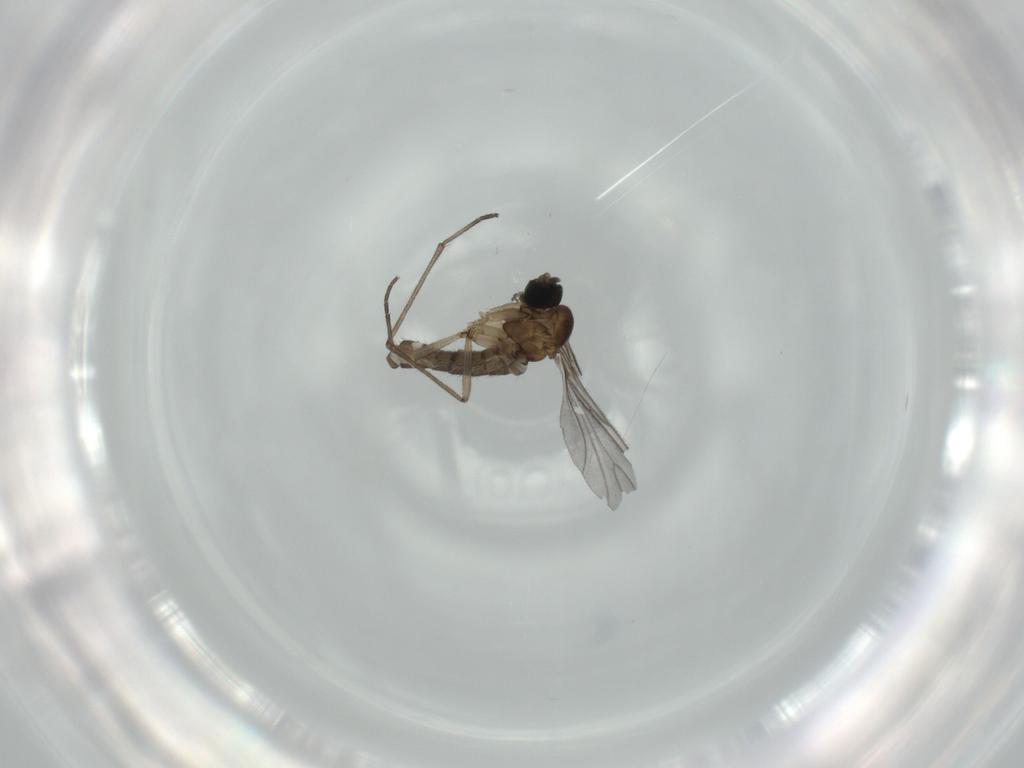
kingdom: Animalia
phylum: Arthropoda
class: Insecta
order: Diptera
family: Sciaridae
